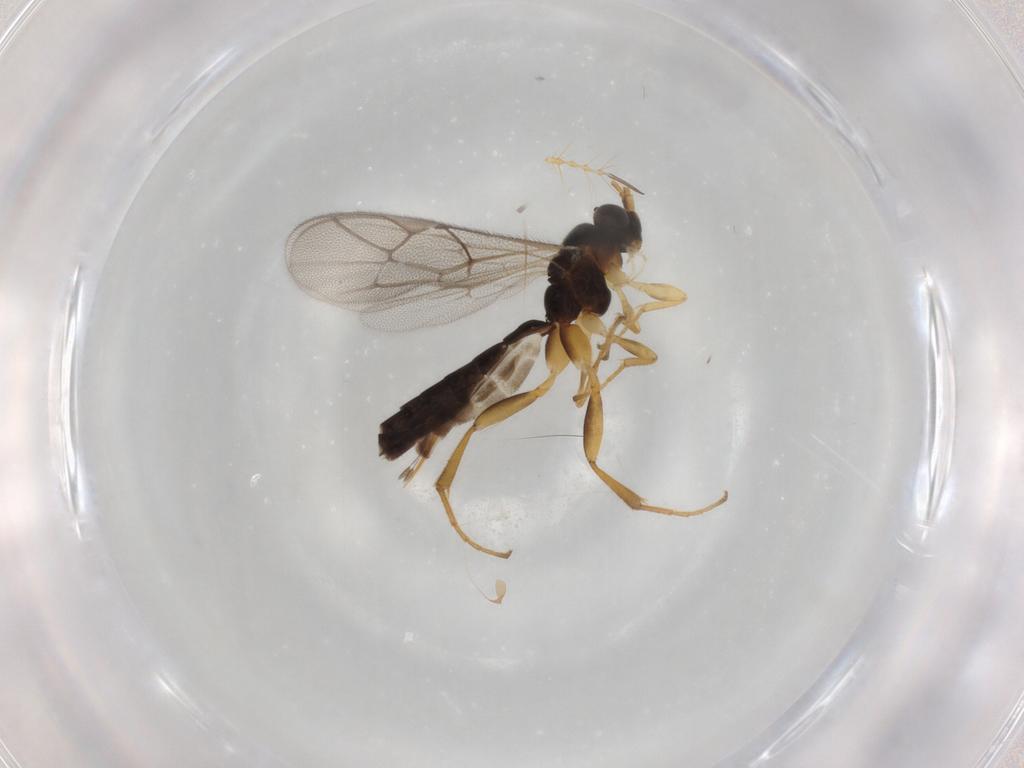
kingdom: Animalia
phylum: Arthropoda
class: Insecta
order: Hymenoptera
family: Ichneumonidae
